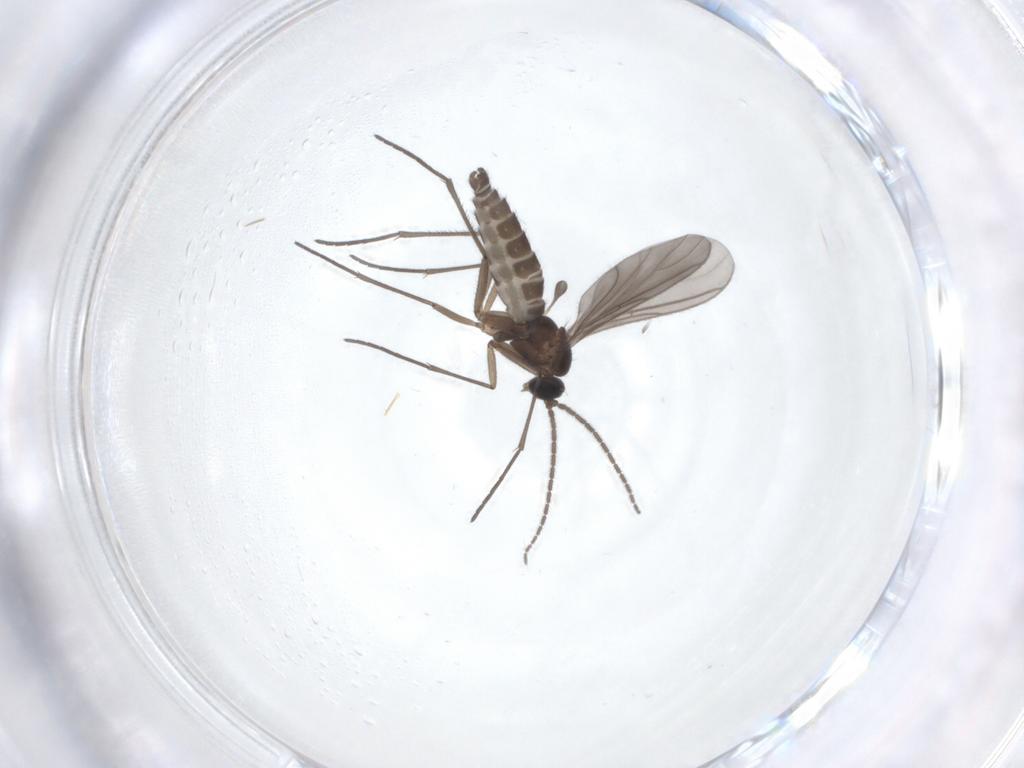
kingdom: Animalia
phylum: Arthropoda
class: Insecta
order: Diptera
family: Sciaridae
